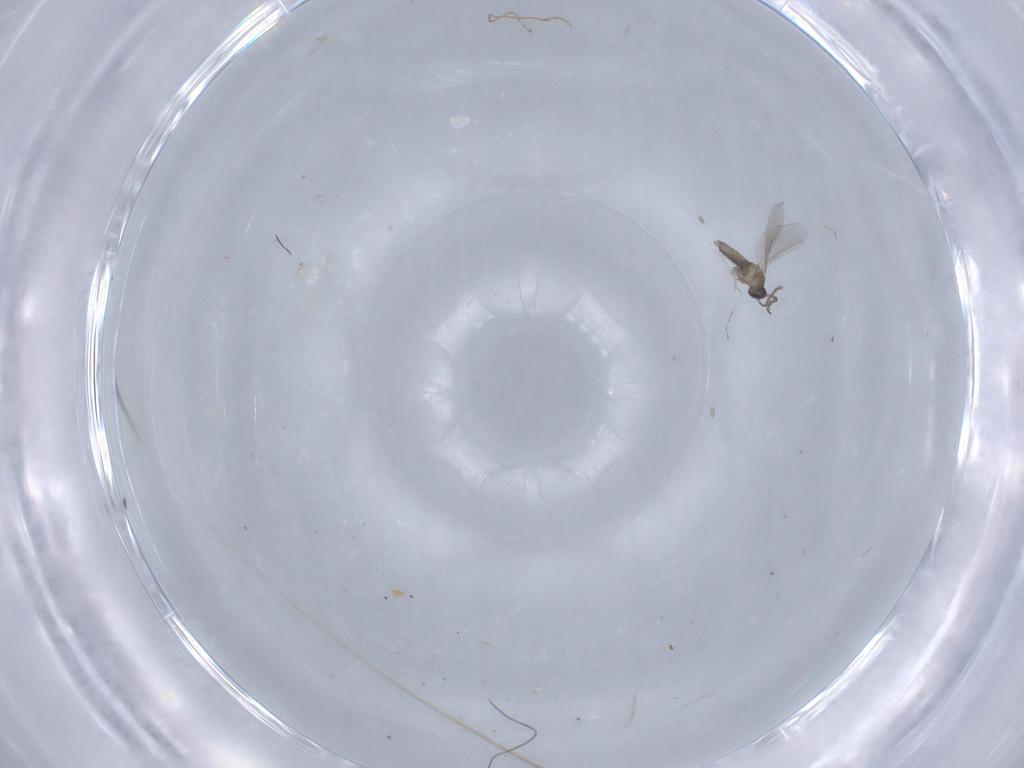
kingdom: Animalia
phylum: Arthropoda
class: Insecta
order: Diptera
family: Cecidomyiidae
